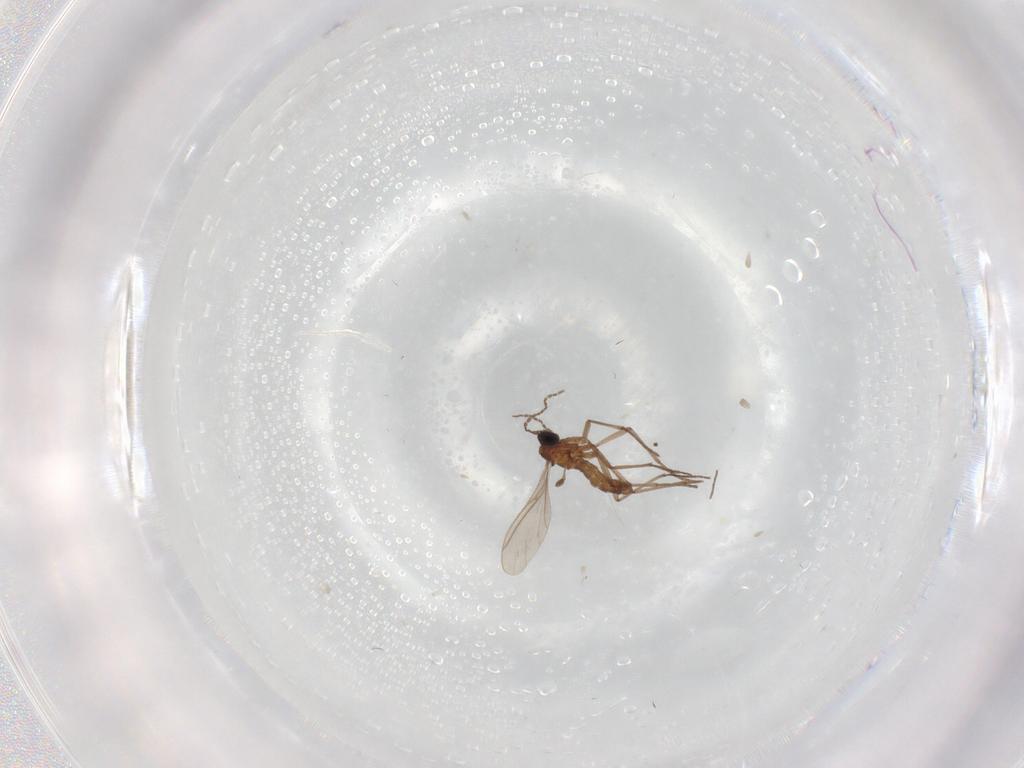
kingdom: Animalia
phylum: Arthropoda
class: Insecta
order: Diptera
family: Sciaridae
